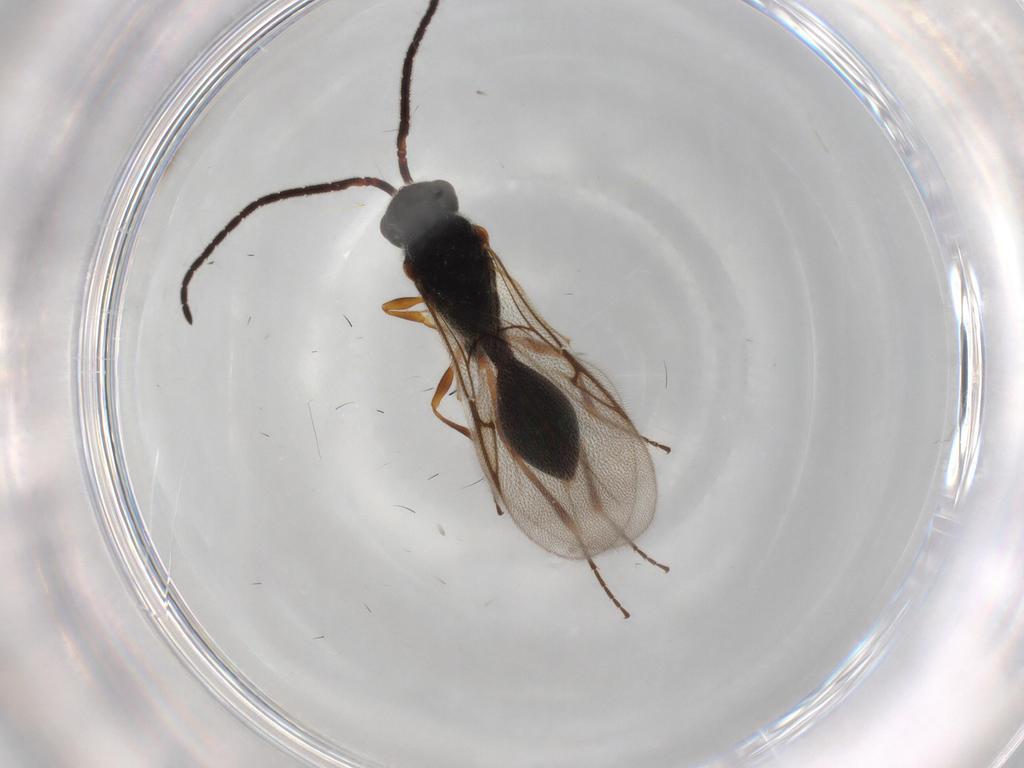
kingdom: Animalia
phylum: Arthropoda
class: Insecta
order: Hymenoptera
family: Diapriidae
